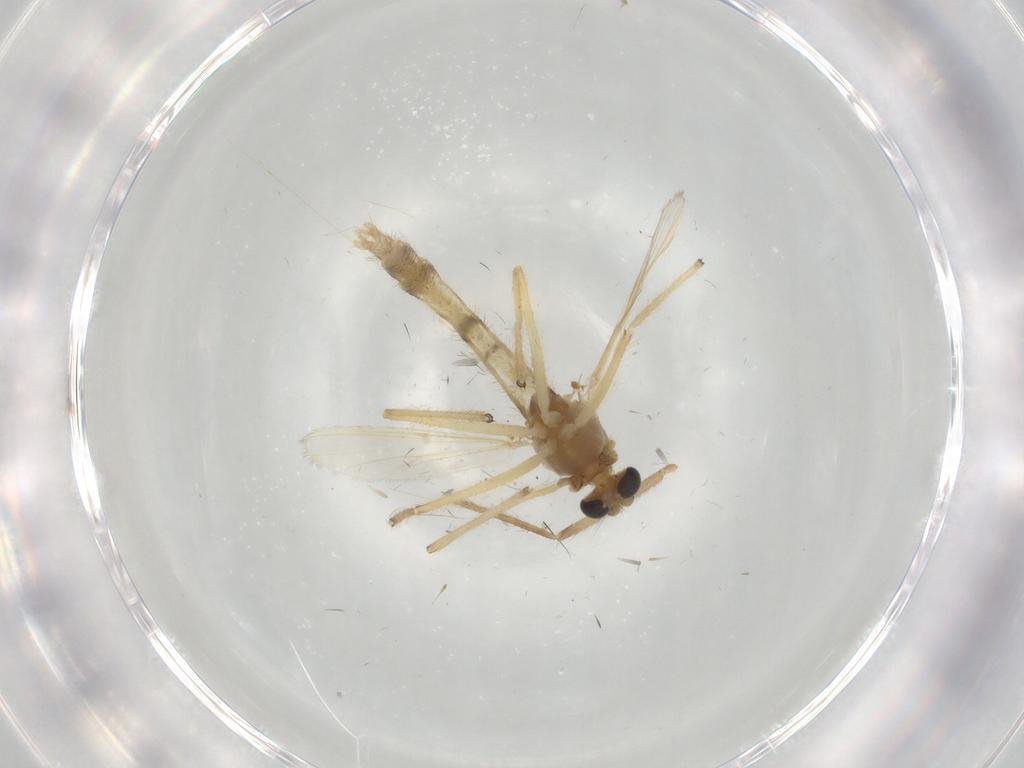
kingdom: Animalia
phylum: Arthropoda
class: Insecta
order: Diptera
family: Chironomidae
